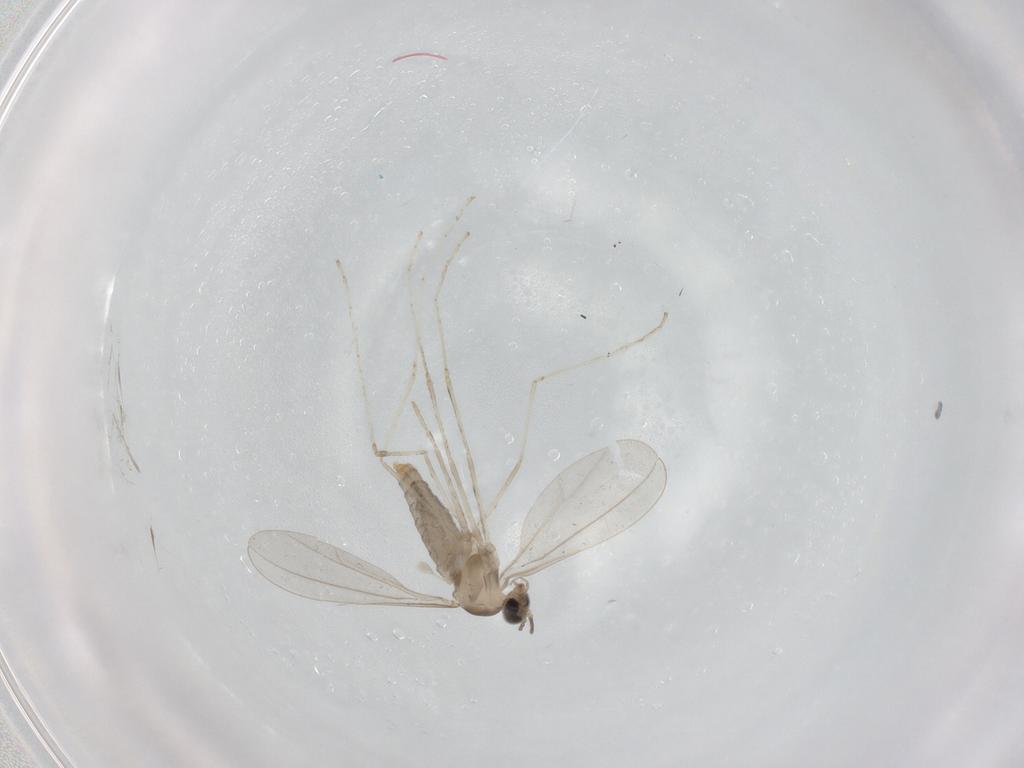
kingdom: Animalia
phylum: Arthropoda
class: Insecta
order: Diptera
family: Cecidomyiidae
